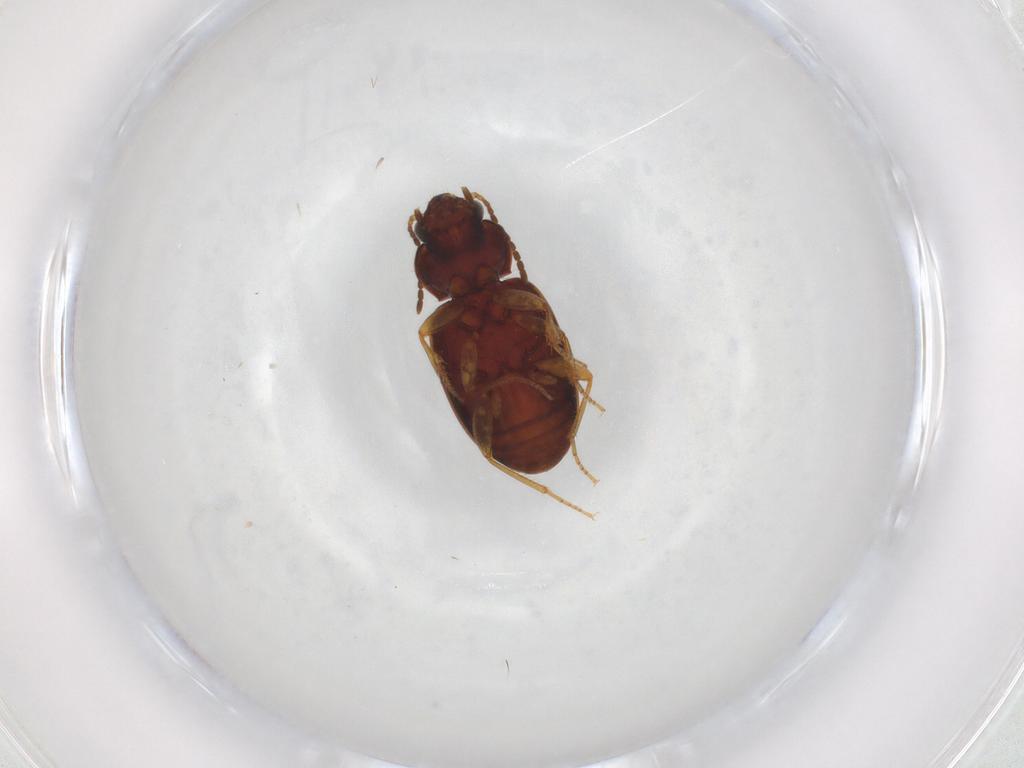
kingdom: Animalia
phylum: Arthropoda
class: Insecta
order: Coleoptera
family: Carabidae
